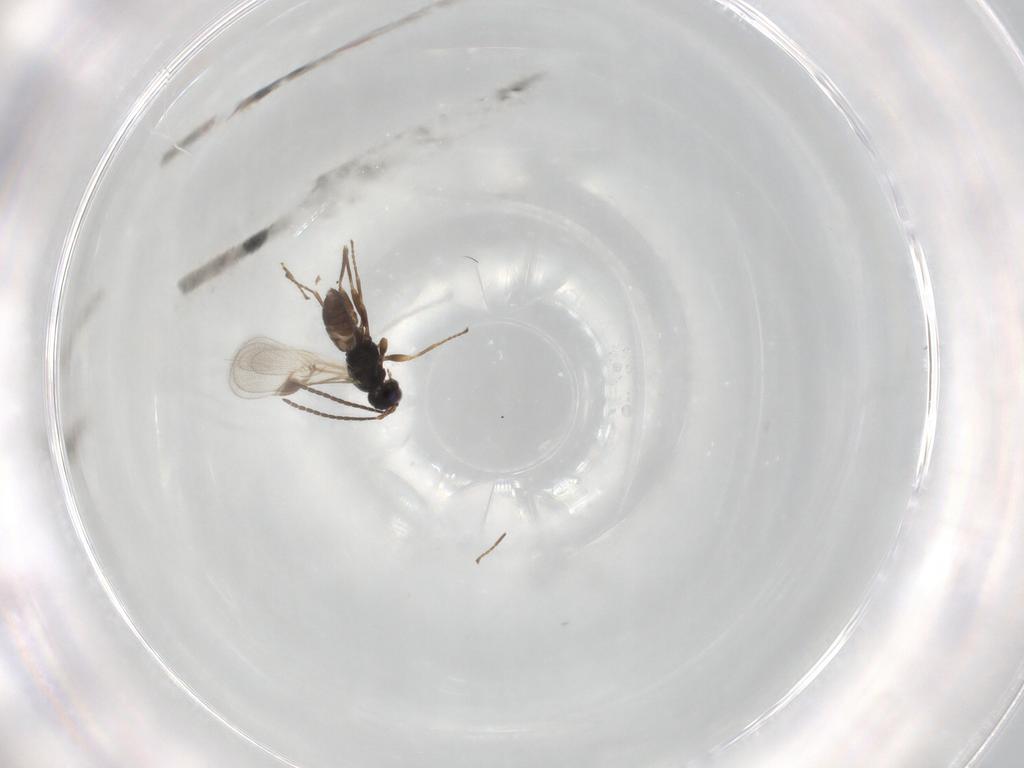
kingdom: Animalia
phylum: Arthropoda
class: Insecta
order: Hymenoptera
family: Braconidae
